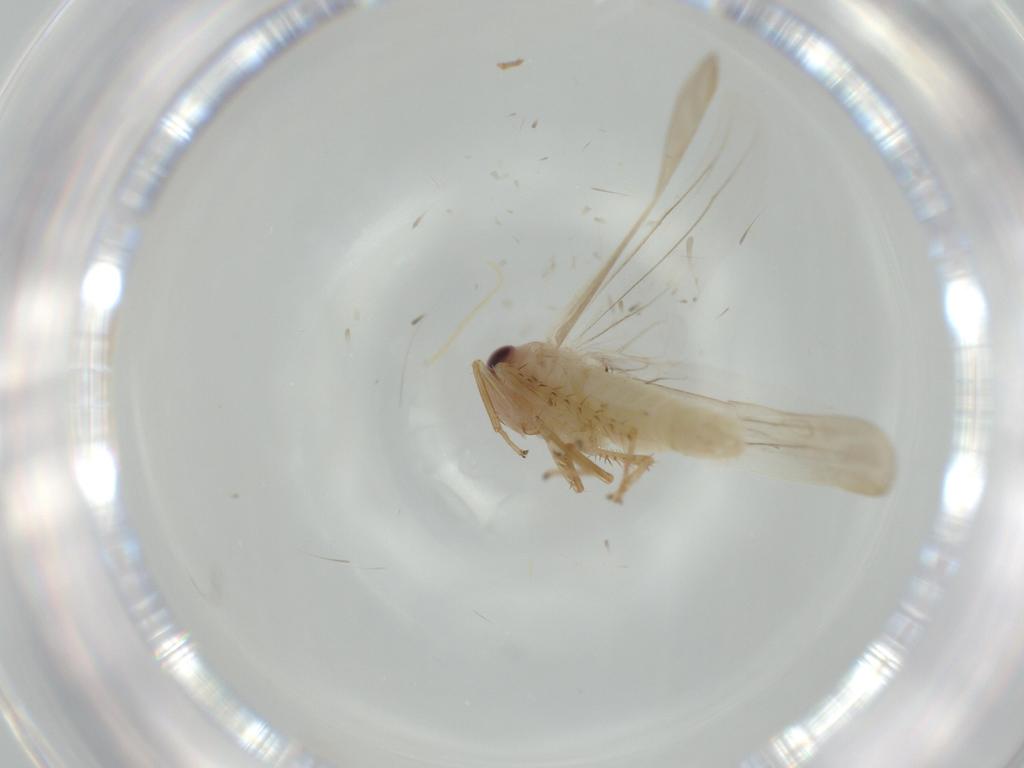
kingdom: Animalia
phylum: Arthropoda
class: Insecta
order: Hemiptera
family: Cicadellidae
